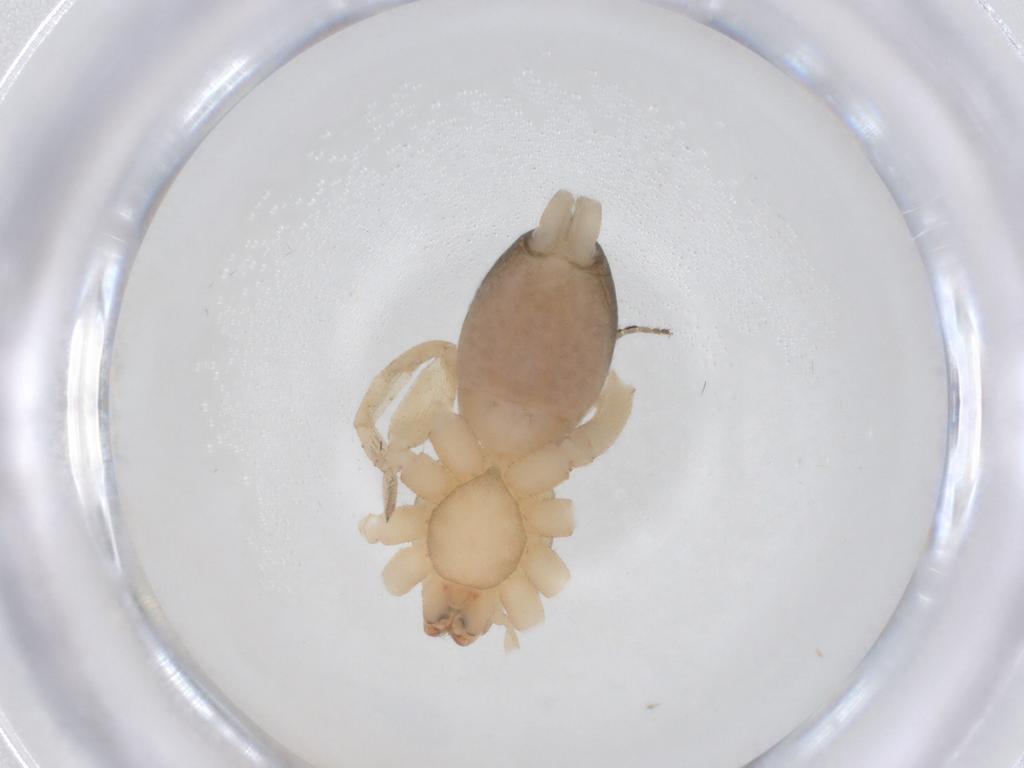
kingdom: Animalia
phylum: Arthropoda
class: Arachnida
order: Araneae
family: Gnaphosidae
